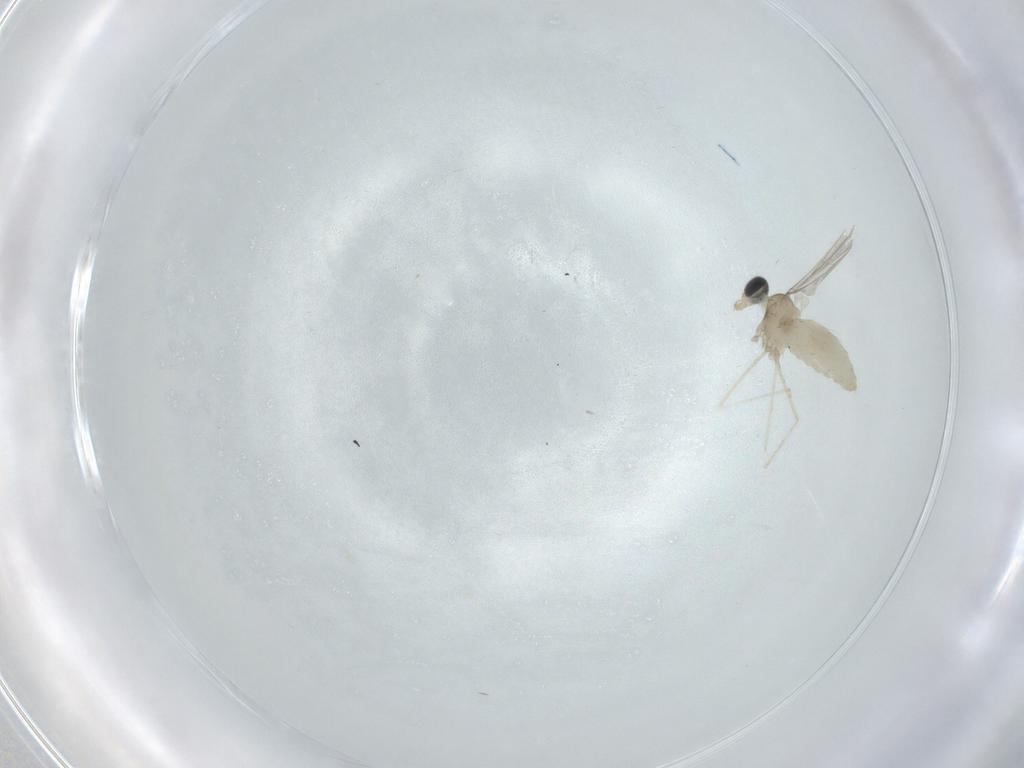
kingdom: Animalia
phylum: Arthropoda
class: Insecta
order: Diptera
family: Cecidomyiidae
